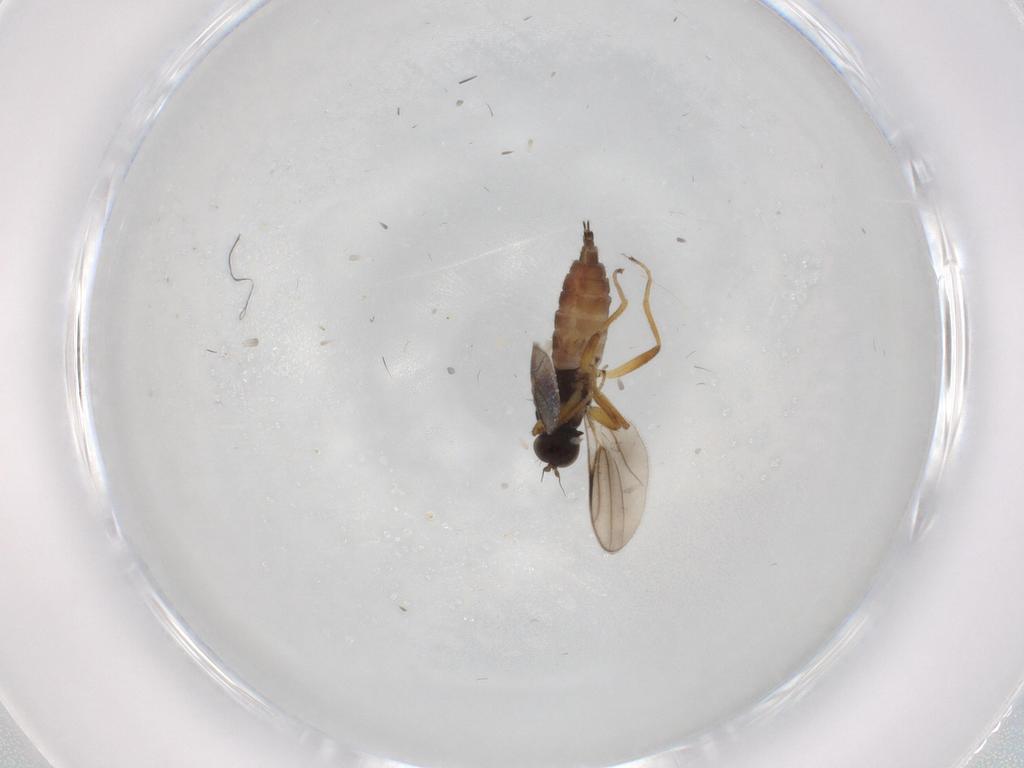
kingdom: Animalia
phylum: Arthropoda
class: Insecta
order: Diptera
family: Hybotidae
